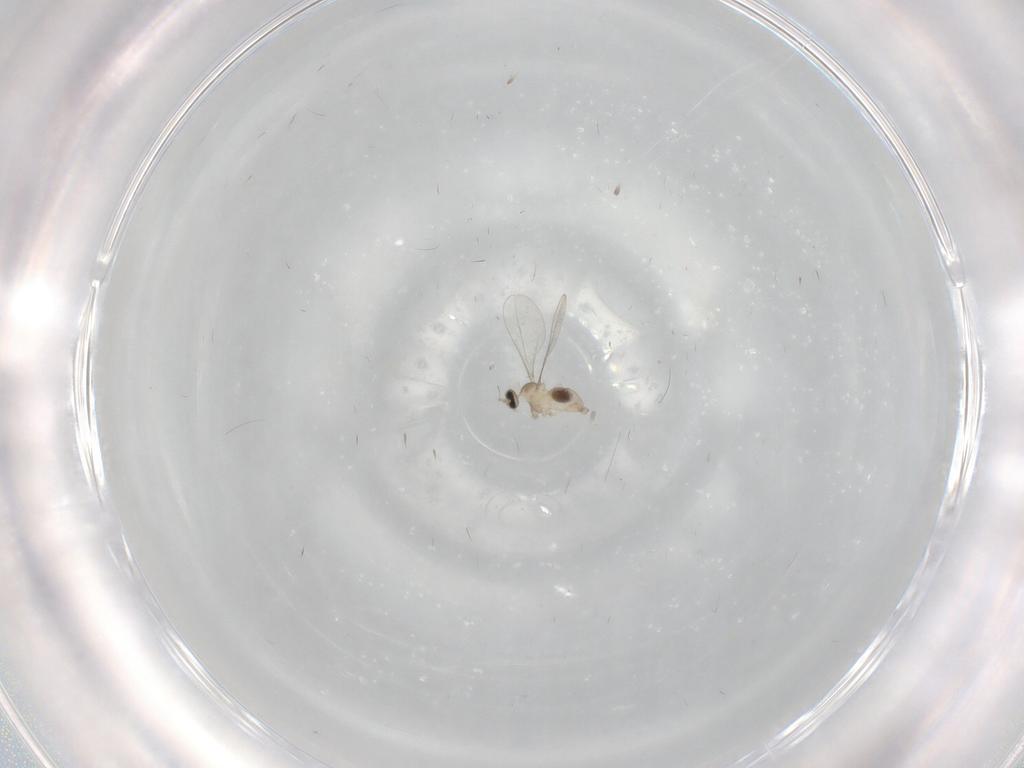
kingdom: Animalia
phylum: Arthropoda
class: Insecta
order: Diptera
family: Cecidomyiidae
